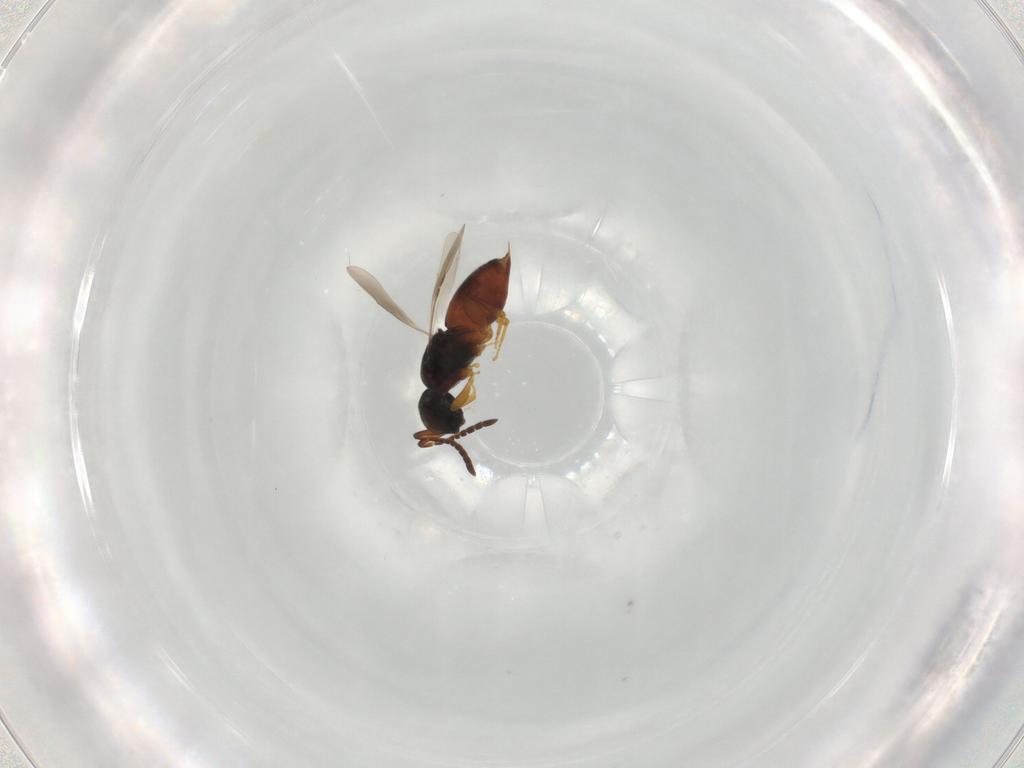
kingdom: Animalia
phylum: Arthropoda
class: Insecta
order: Hymenoptera
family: Ceraphronidae
